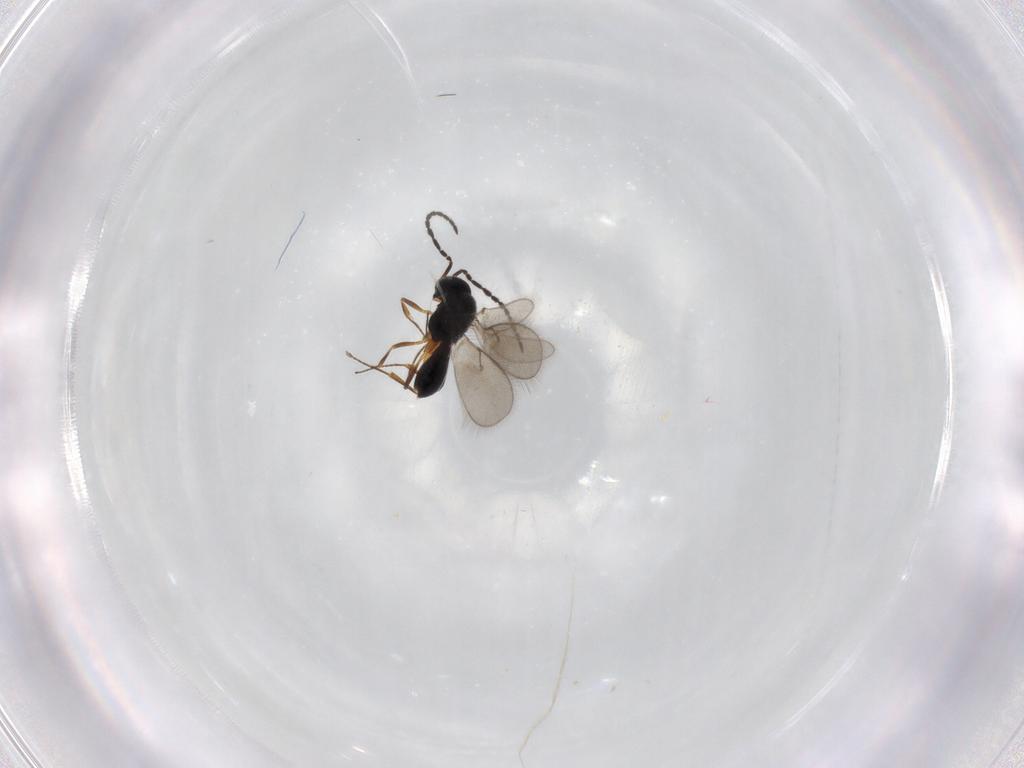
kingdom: Animalia
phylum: Arthropoda
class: Insecta
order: Hymenoptera
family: Scelionidae
